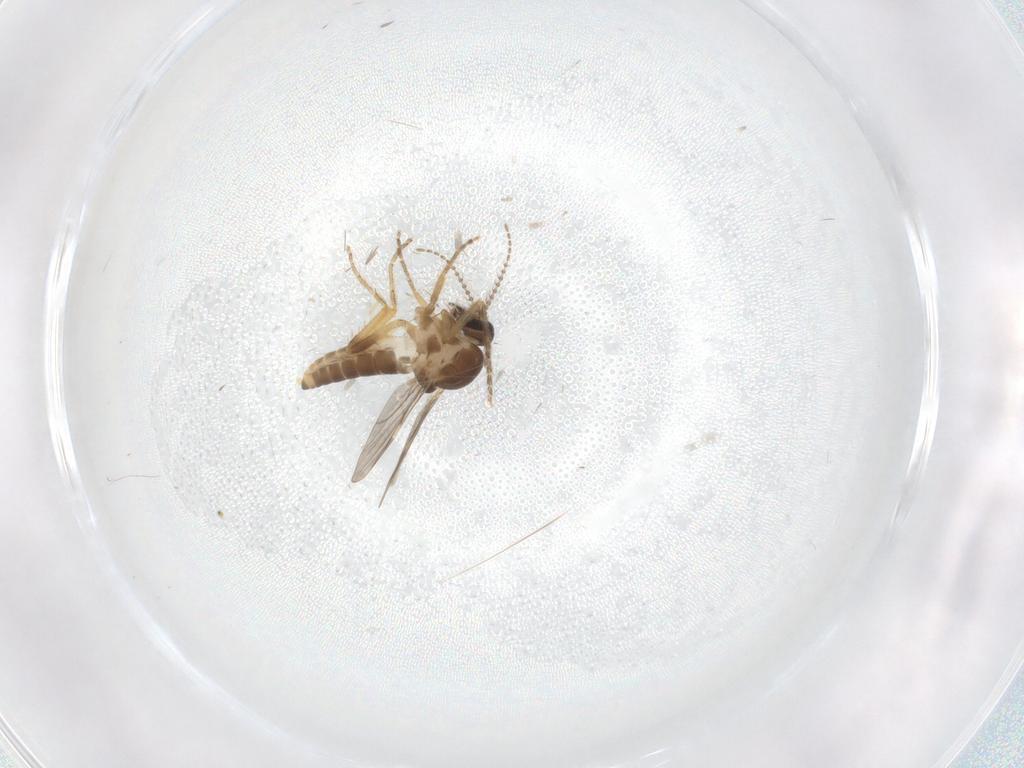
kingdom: Animalia
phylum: Arthropoda
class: Insecta
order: Diptera
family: Ceratopogonidae
